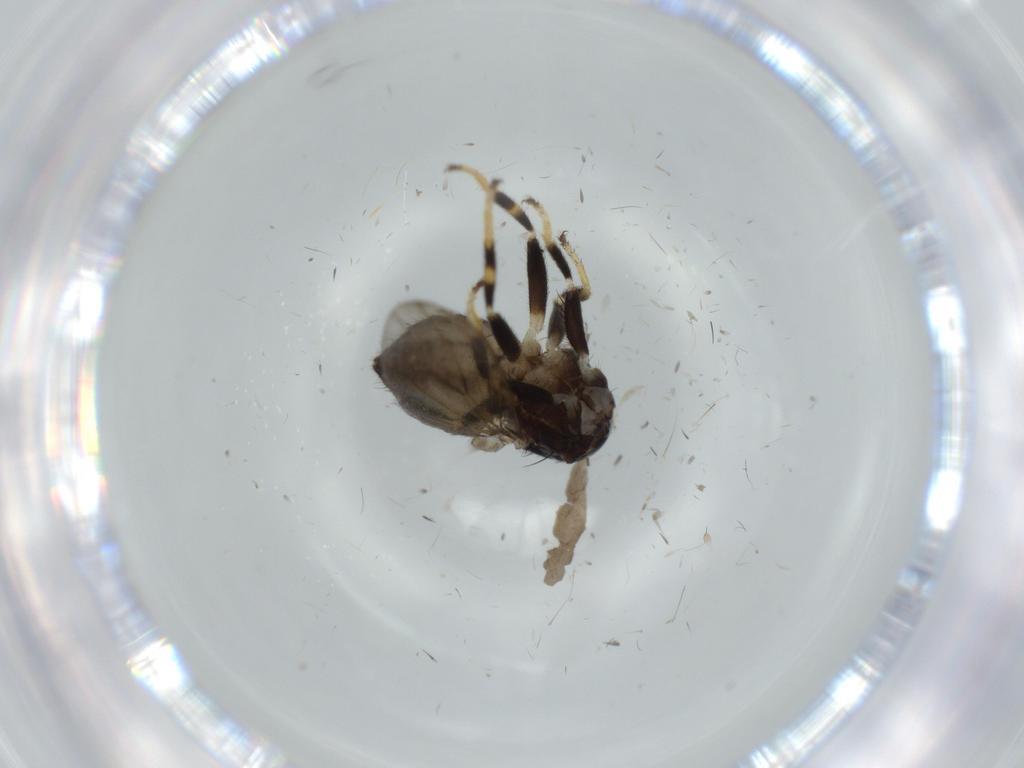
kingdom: Animalia
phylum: Arthropoda
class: Insecta
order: Diptera
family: Ephydridae
